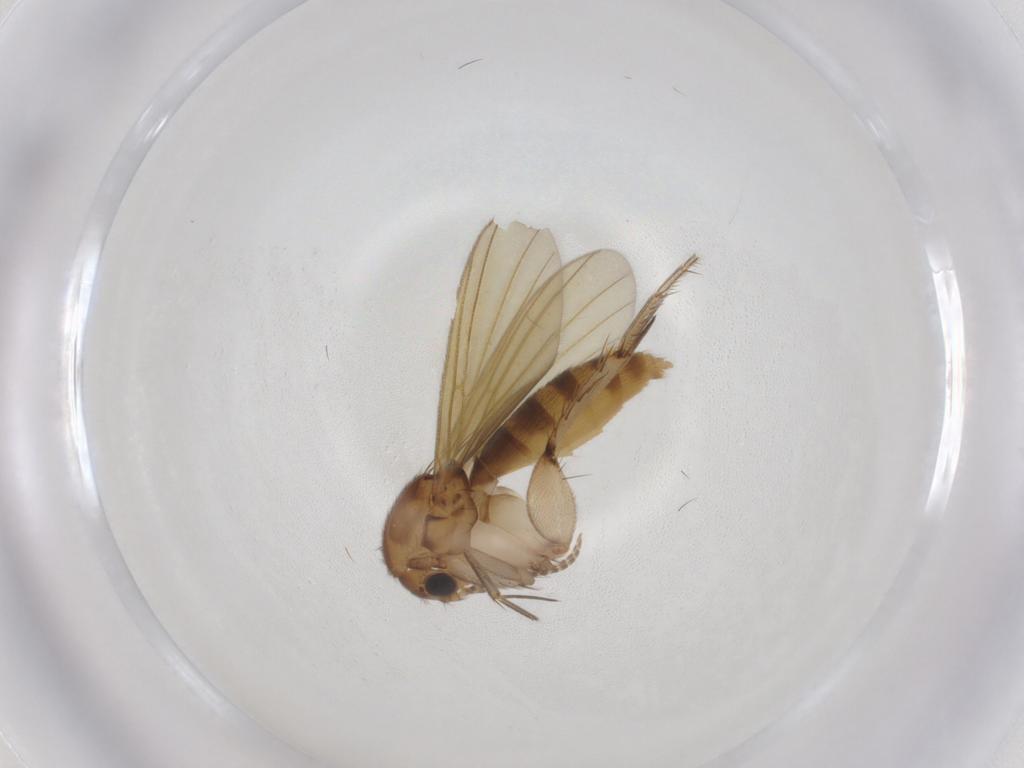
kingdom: Animalia
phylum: Arthropoda
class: Insecta
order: Diptera
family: Mycetophilidae
